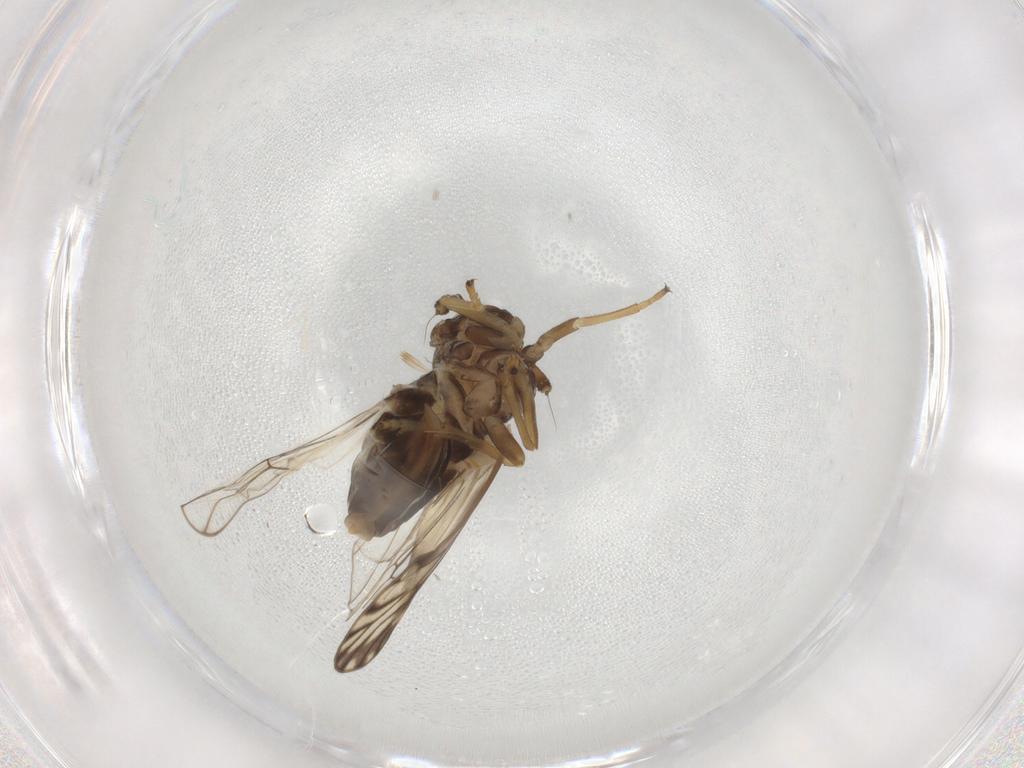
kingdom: Animalia
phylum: Arthropoda
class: Insecta
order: Hemiptera
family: Delphacidae
